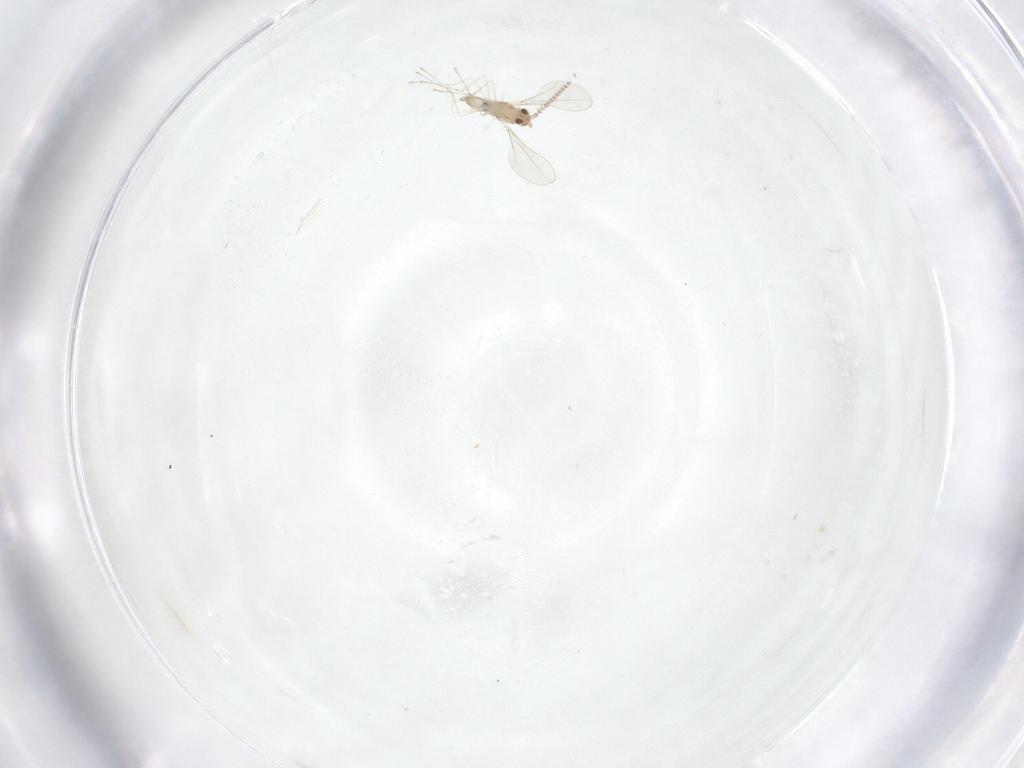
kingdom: Animalia
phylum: Arthropoda
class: Insecta
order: Diptera
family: Cecidomyiidae
